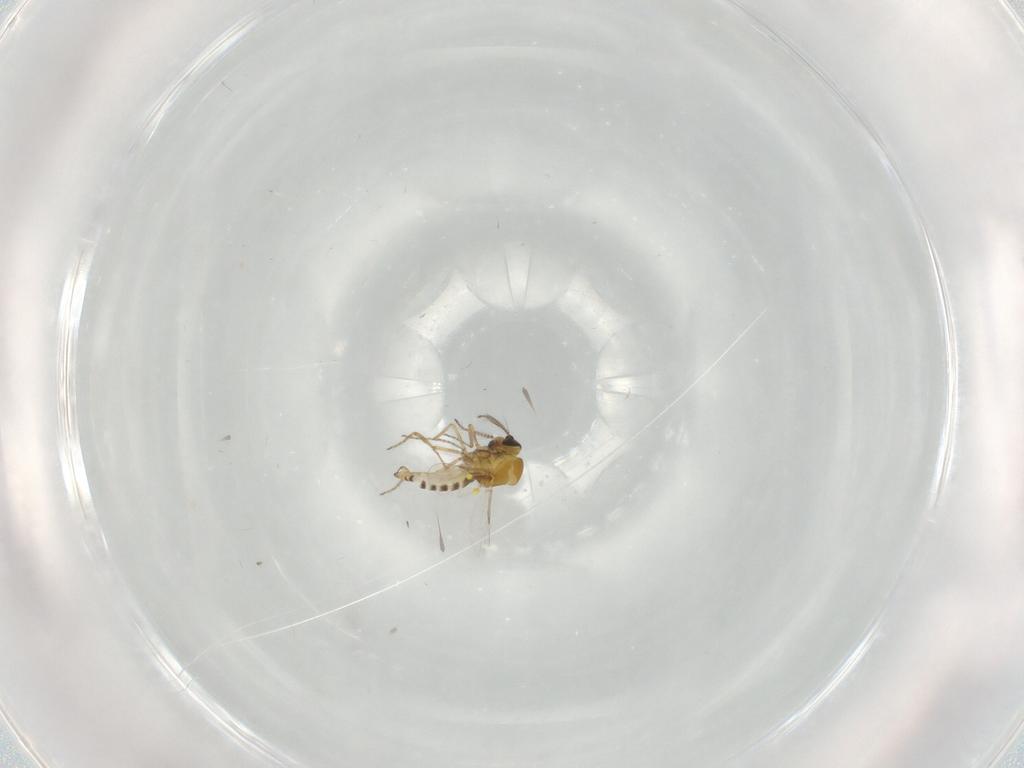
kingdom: Animalia
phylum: Arthropoda
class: Insecta
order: Diptera
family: Ceratopogonidae
